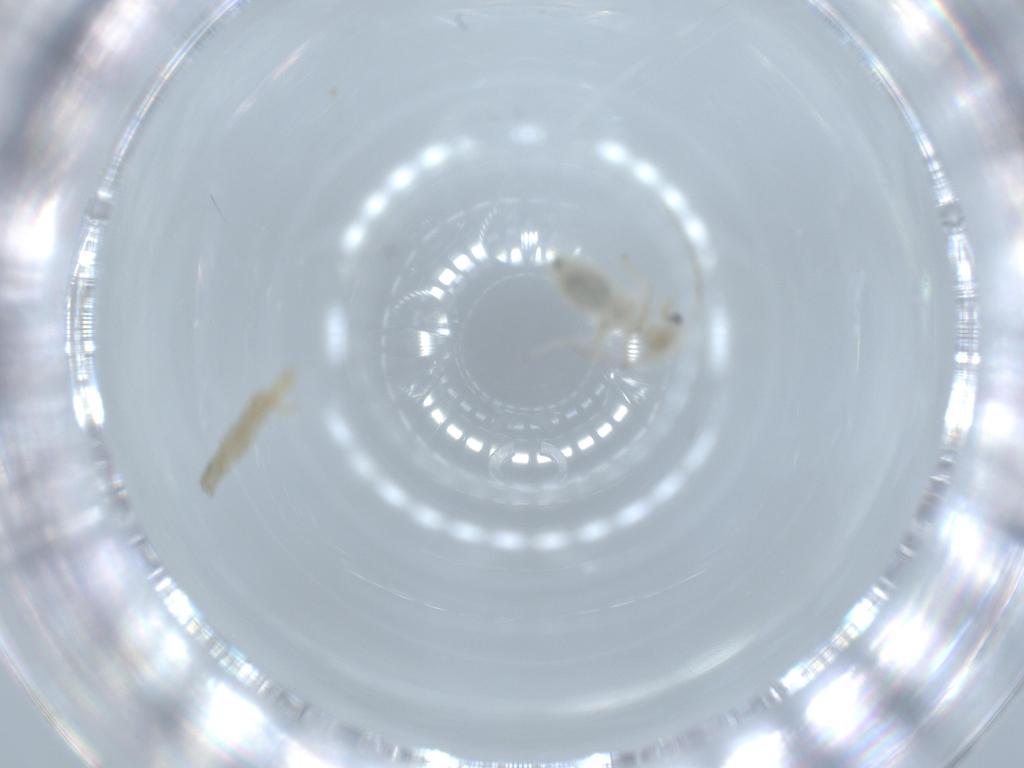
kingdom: Animalia
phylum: Arthropoda
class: Insecta
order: Psocodea
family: Caeciliusidae
